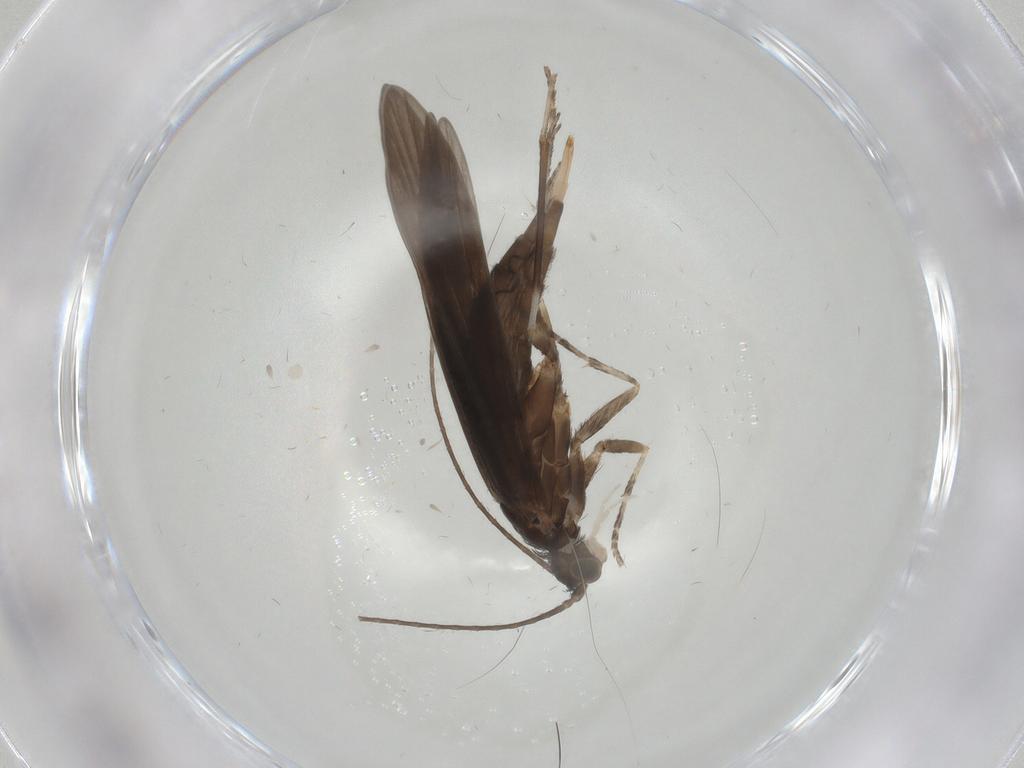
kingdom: Animalia
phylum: Arthropoda
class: Insecta
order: Trichoptera
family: Xiphocentronidae
